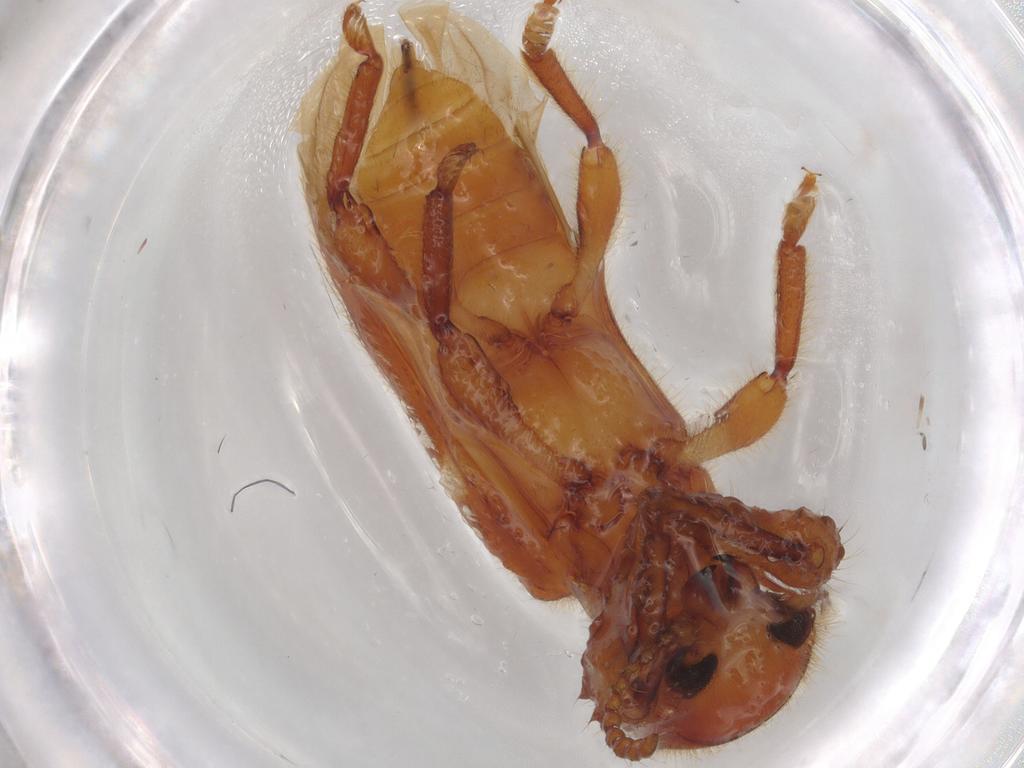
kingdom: Animalia
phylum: Arthropoda
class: Insecta
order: Coleoptera
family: Cleridae
